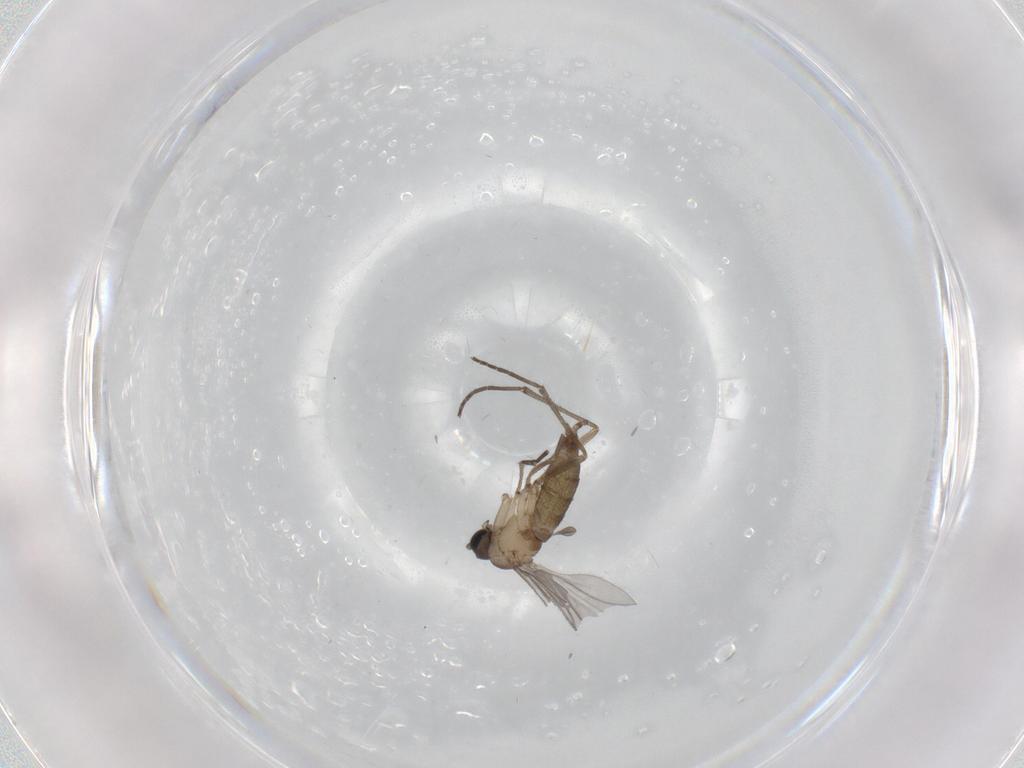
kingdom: Animalia
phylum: Arthropoda
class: Insecta
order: Diptera
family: Sciaridae
